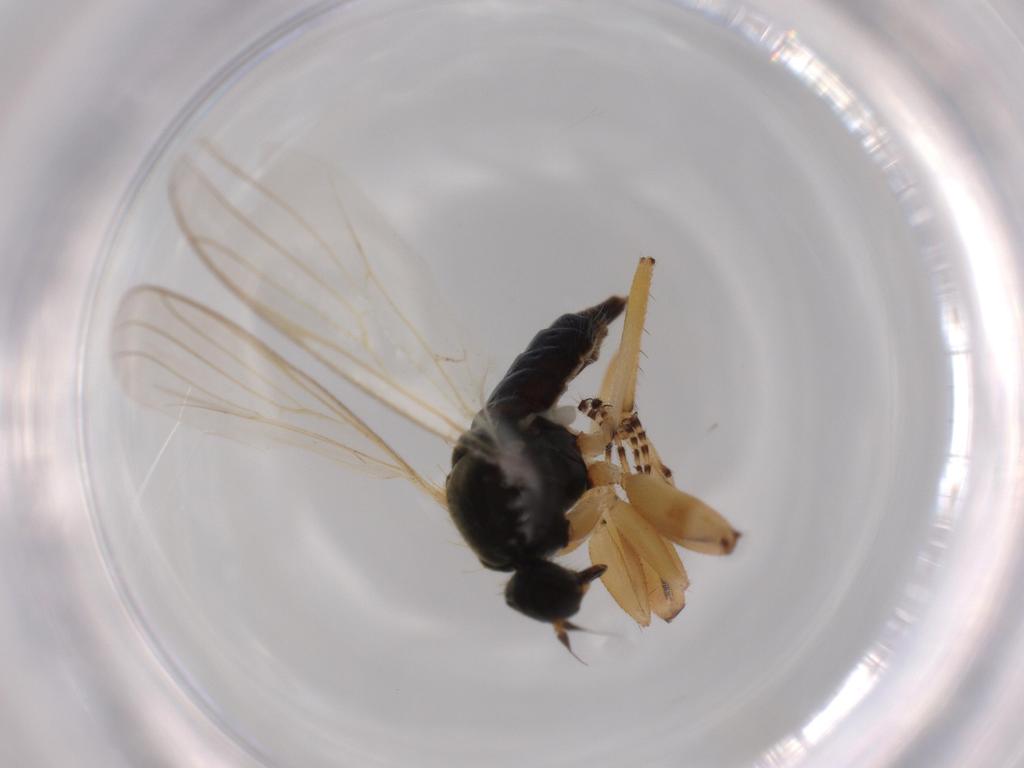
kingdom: Animalia
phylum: Arthropoda
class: Insecta
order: Diptera
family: Hybotidae
